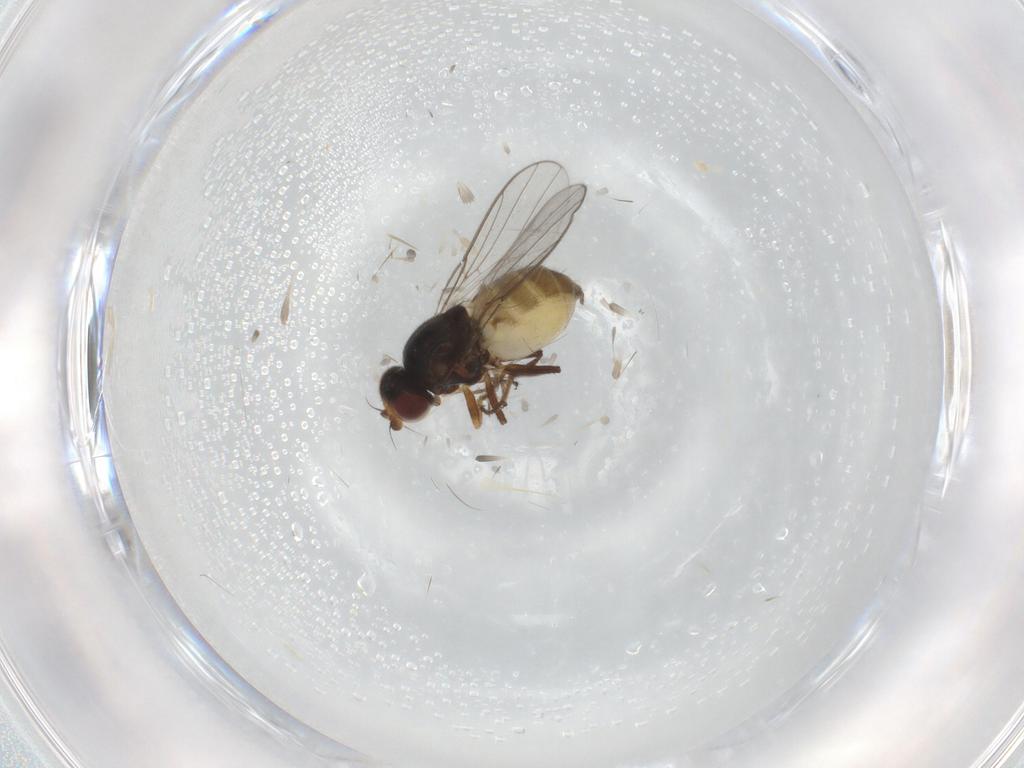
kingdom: Animalia
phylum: Arthropoda
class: Insecta
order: Diptera
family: Chloropidae
